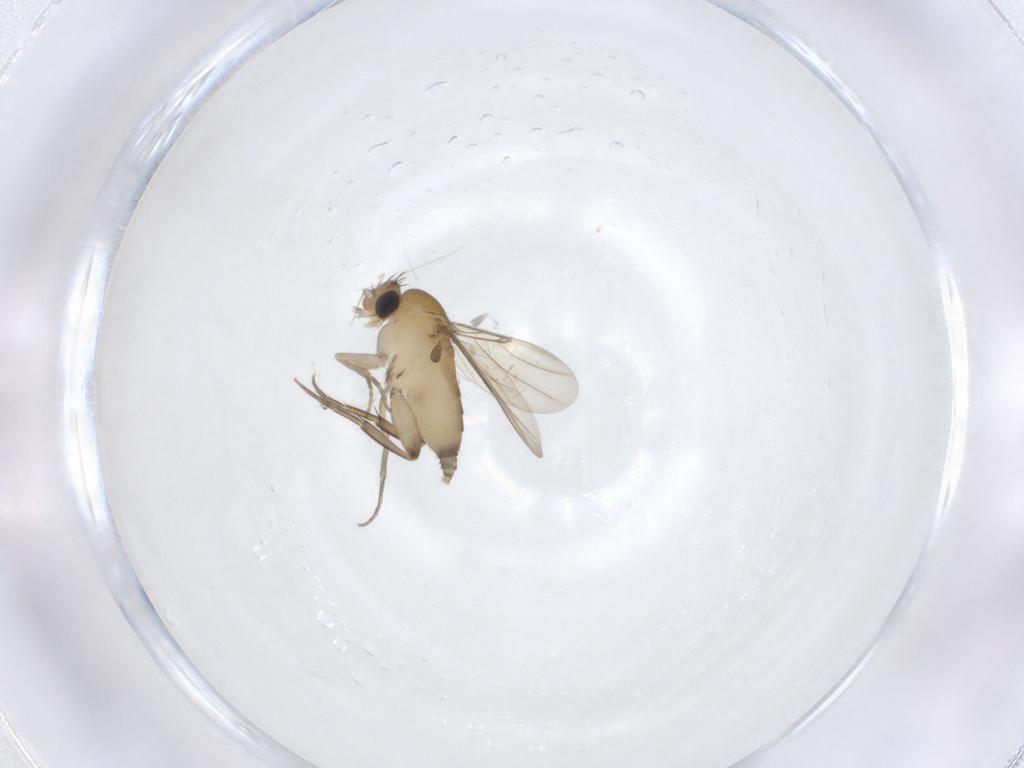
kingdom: Animalia
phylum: Arthropoda
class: Insecta
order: Diptera
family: Phoridae
